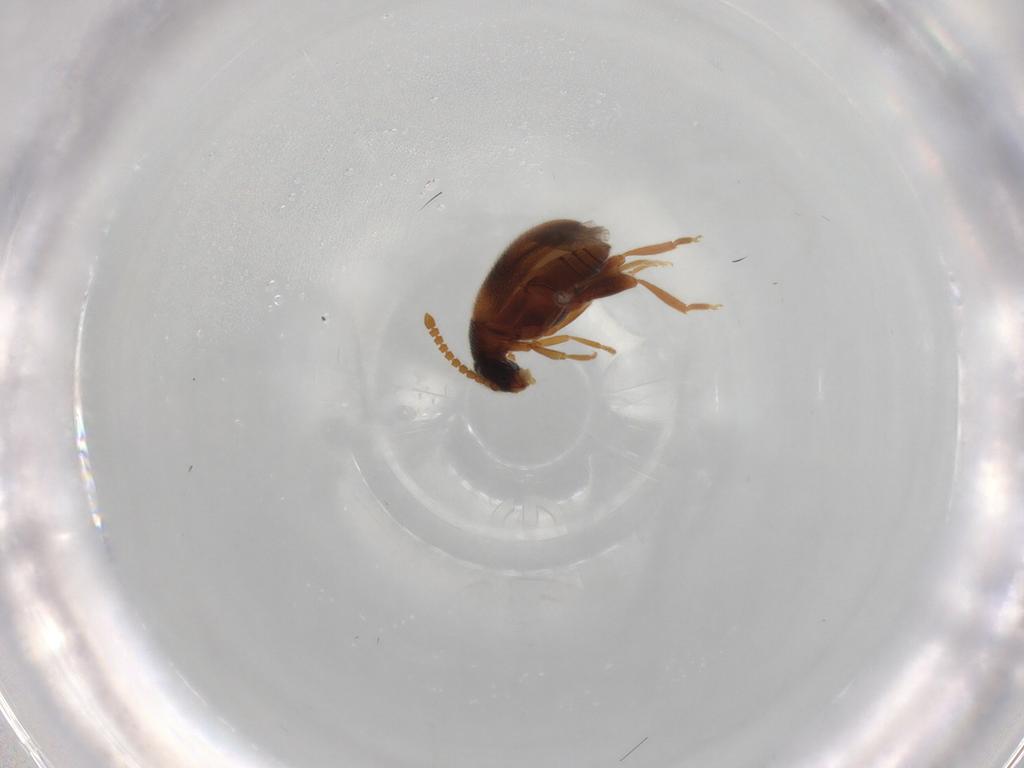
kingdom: Animalia
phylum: Arthropoda
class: Insecta
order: Coleoptera
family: Aderidae
